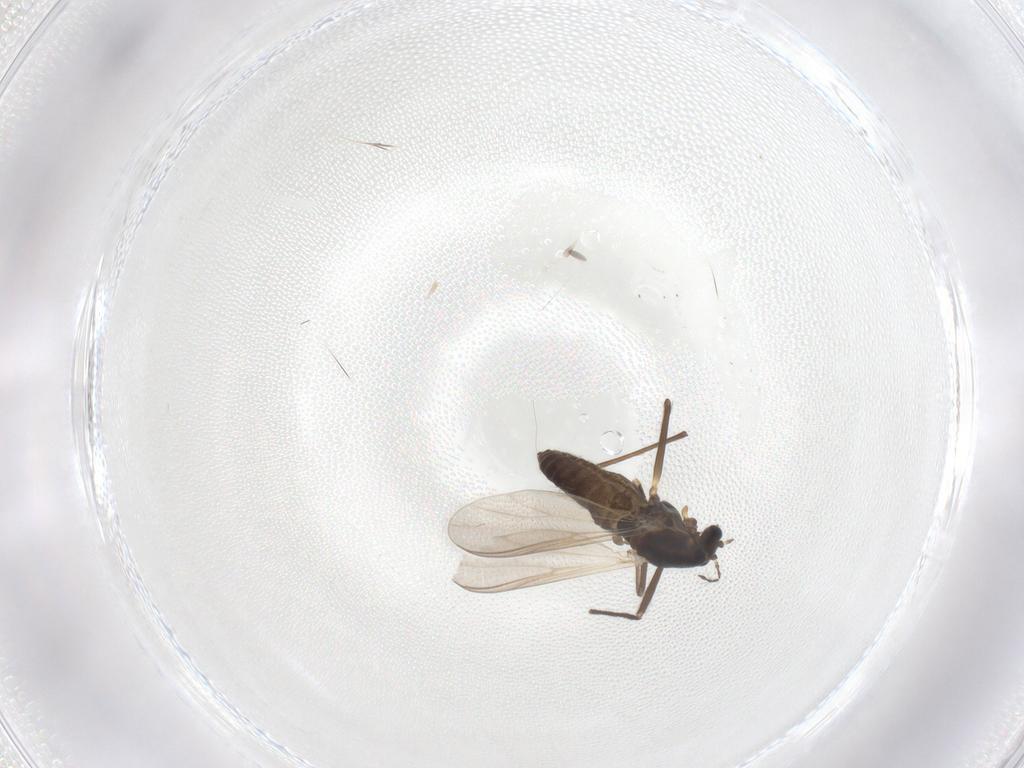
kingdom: Animalia
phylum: Arthropoda
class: Insecta
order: Diptera
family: Chironomidae
